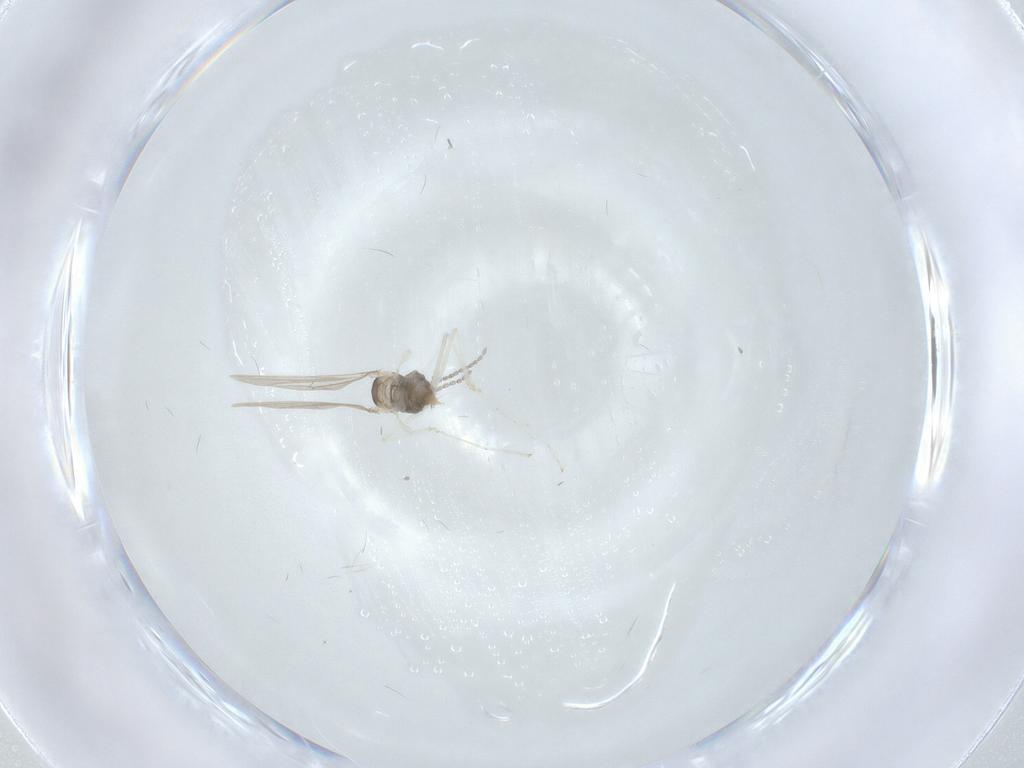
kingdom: Animalia
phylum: Arthropoda
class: Insecta
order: Diptera
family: Cecidomyiidae
